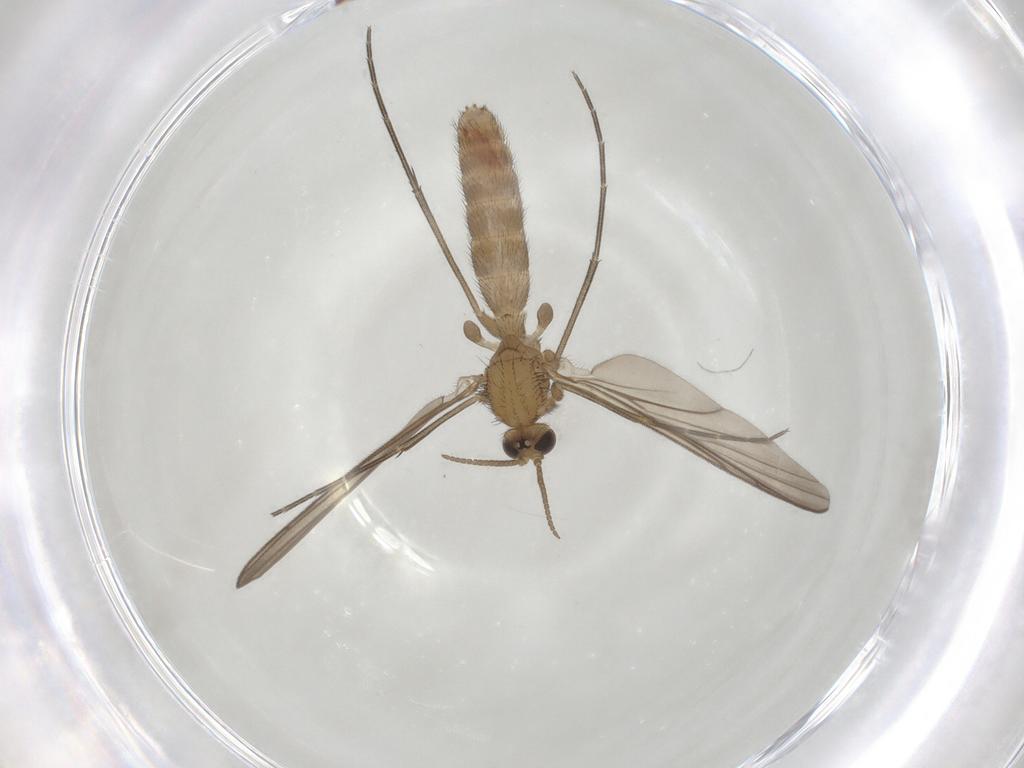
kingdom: Animalia
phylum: Arthropoda
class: Insecta
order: Diptera
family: Keroplatidae
